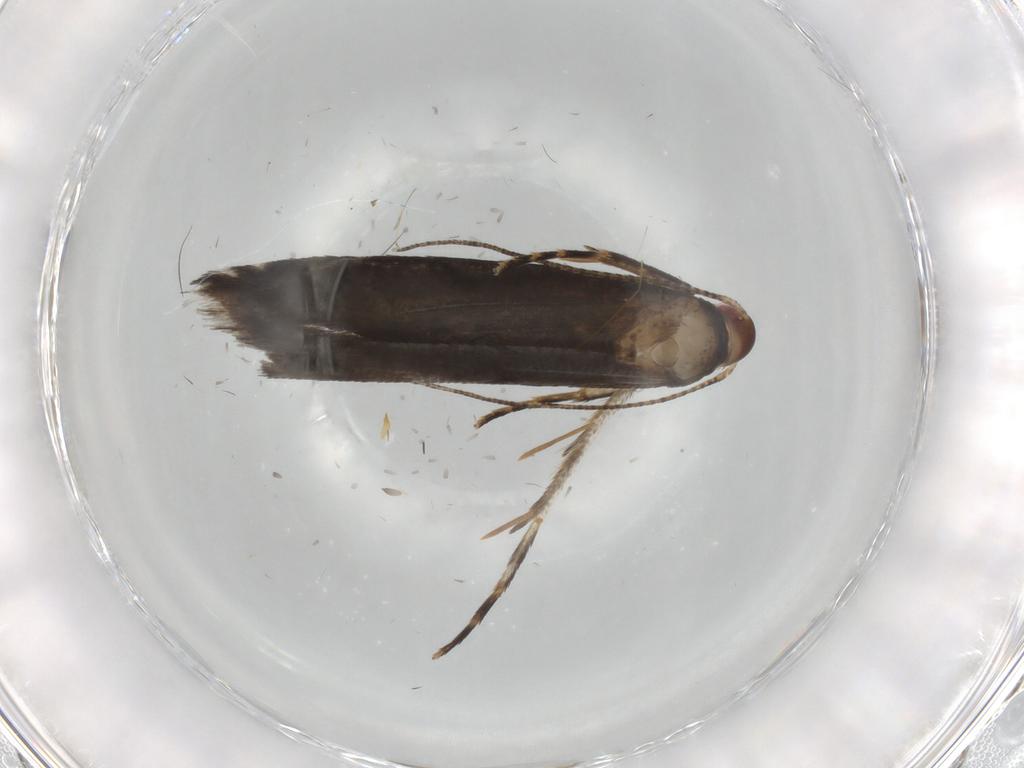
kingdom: Animalia
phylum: Arthropoda
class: Insecta
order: Lepidoptera
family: Gelechiidae
